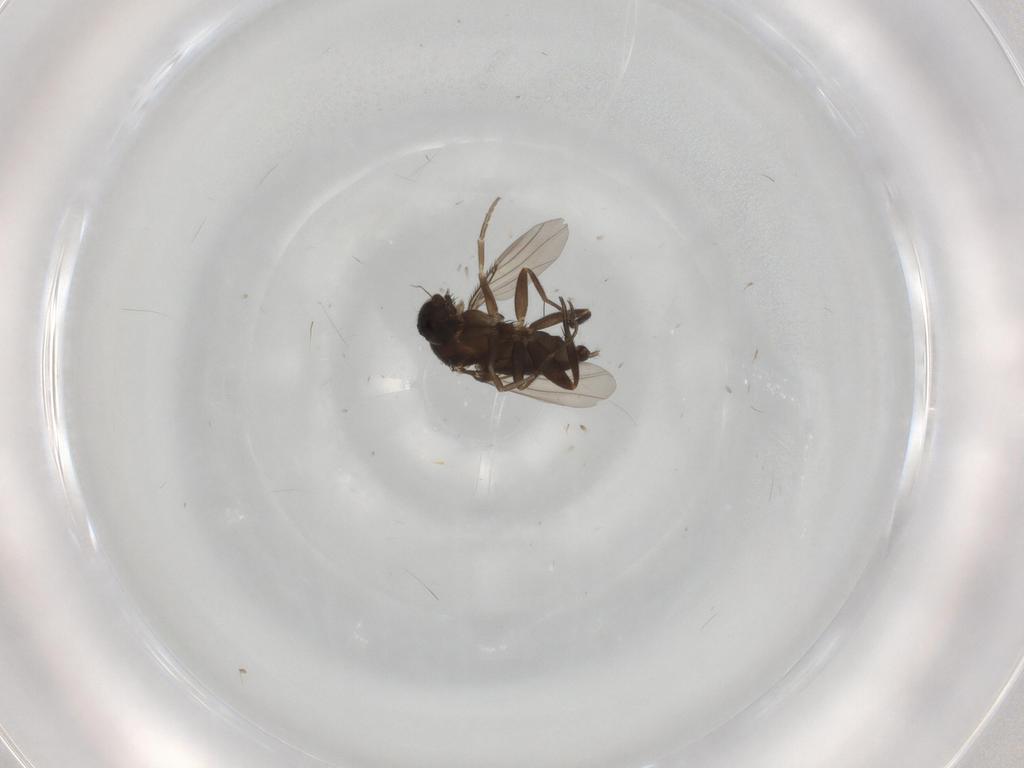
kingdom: Animalia
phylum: Arthropoda
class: Insecta
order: Diptera
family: Phoridae
